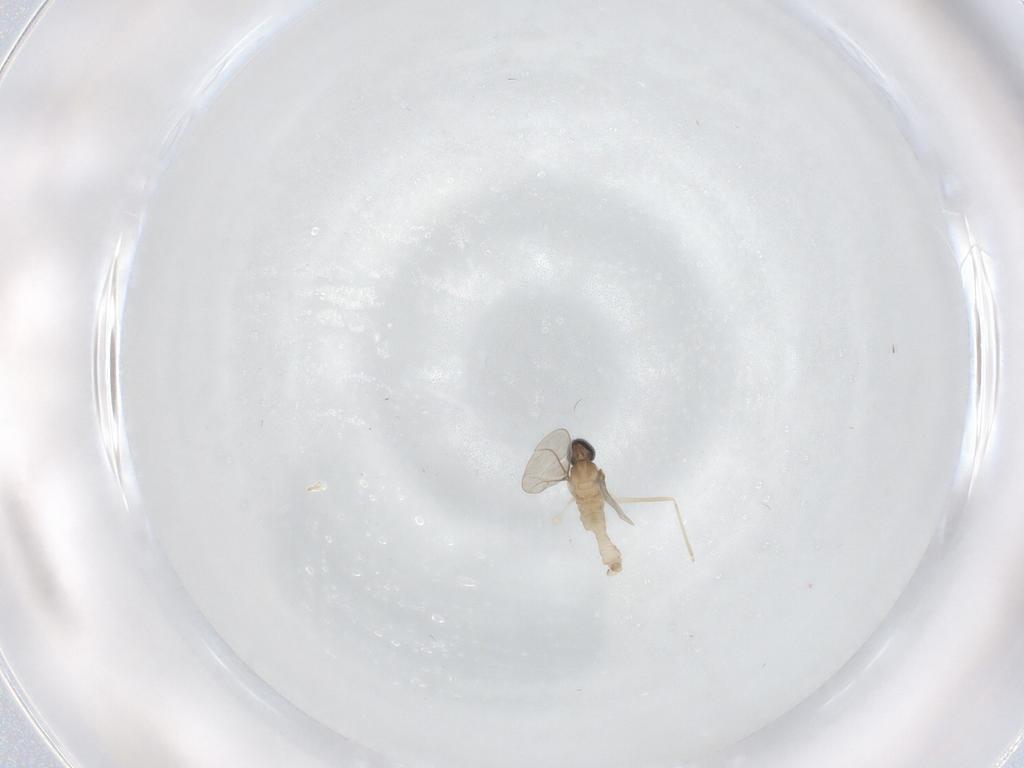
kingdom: Animalia
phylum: Arthropoda
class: Insecta
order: Diptera
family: Cecidomyiidae
